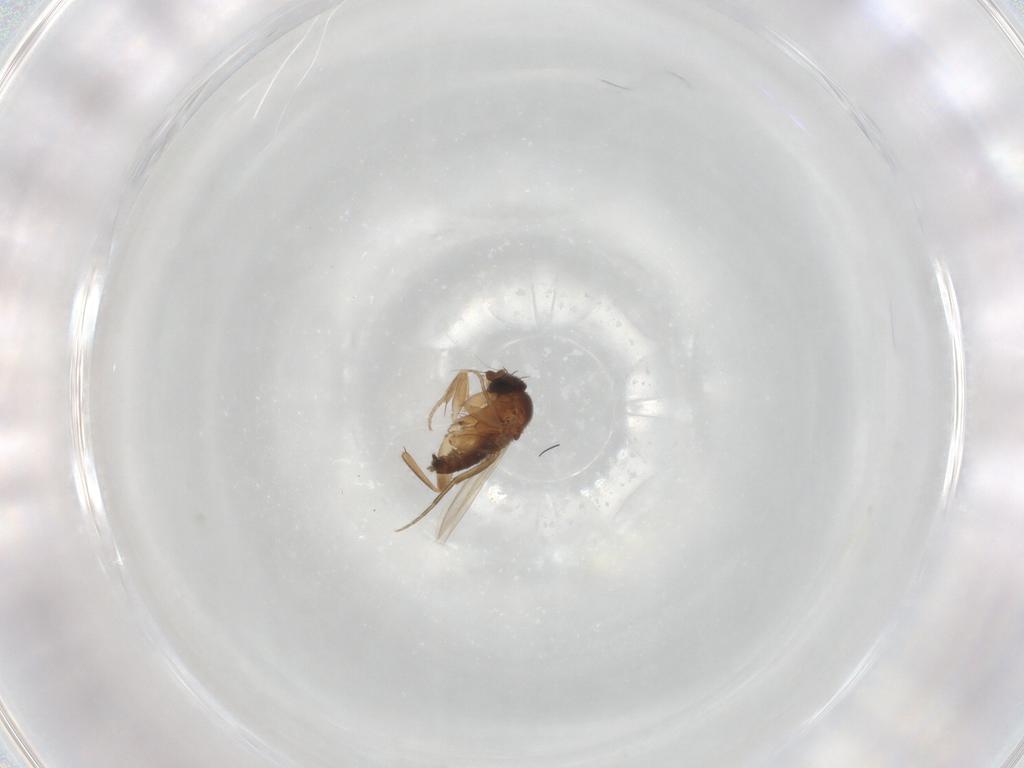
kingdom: Animalia
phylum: Arthropoda
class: Insecta
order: Diptera
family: Phoridae
